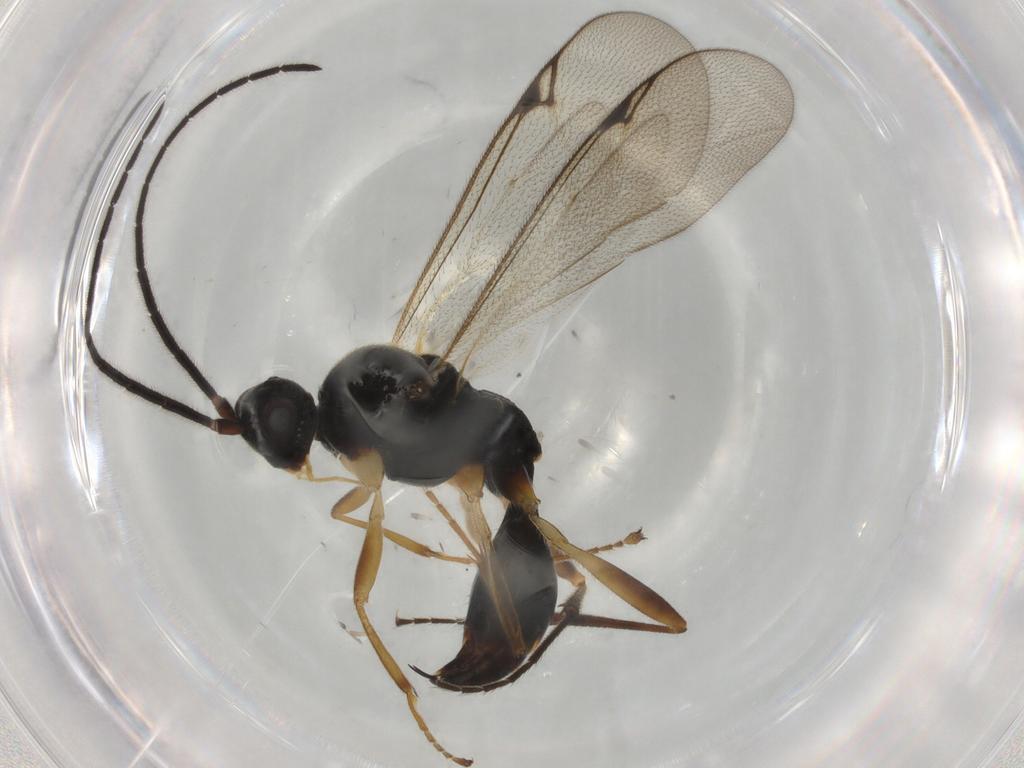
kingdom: Animalia
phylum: Arthropoda
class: Insecta
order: Hymenoptera
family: Proctotrupidae
